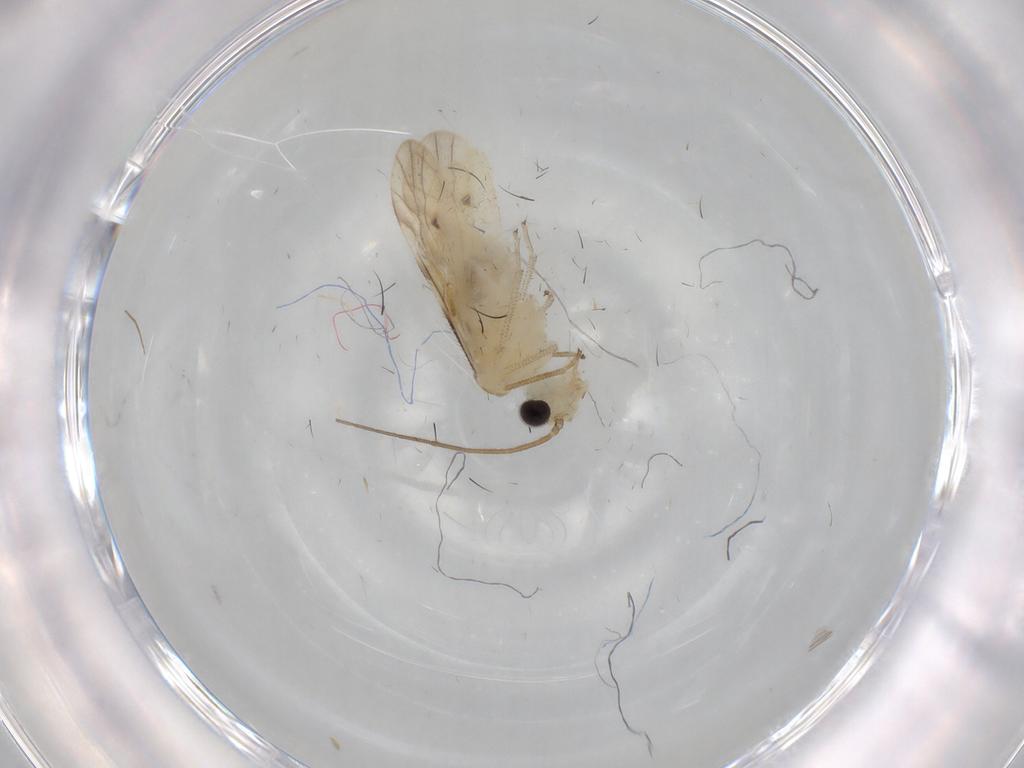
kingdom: Animalia
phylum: Arthropoda
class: Insecta
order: Psocodea
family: Caeciliusidae
